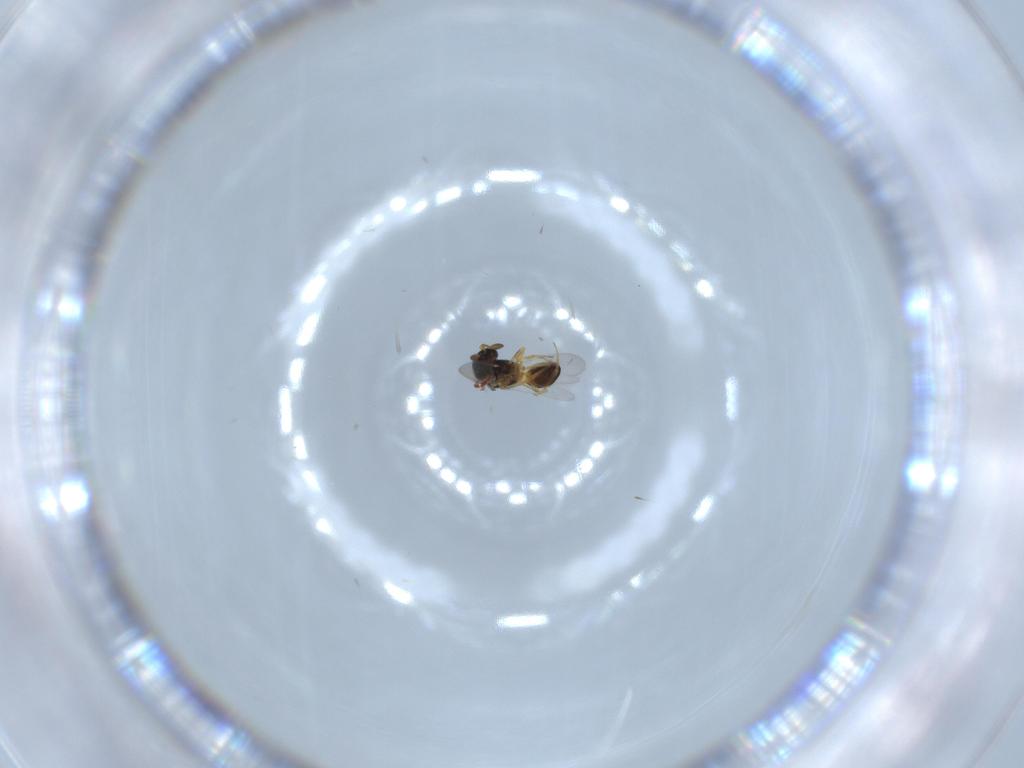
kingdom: Animalia
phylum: Arthropoda
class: Insecta
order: Hymenoptera
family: Scelionidae
